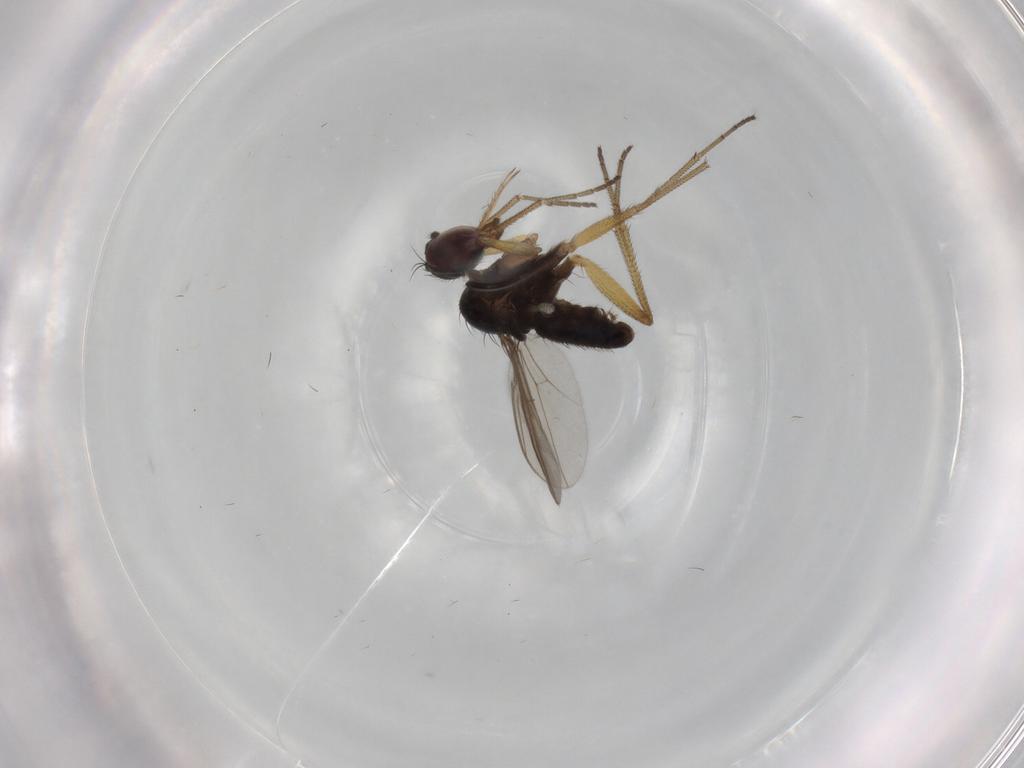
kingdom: Animalia
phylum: Arthropoda
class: Insecta
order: Diptera
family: Dolichopodidae
